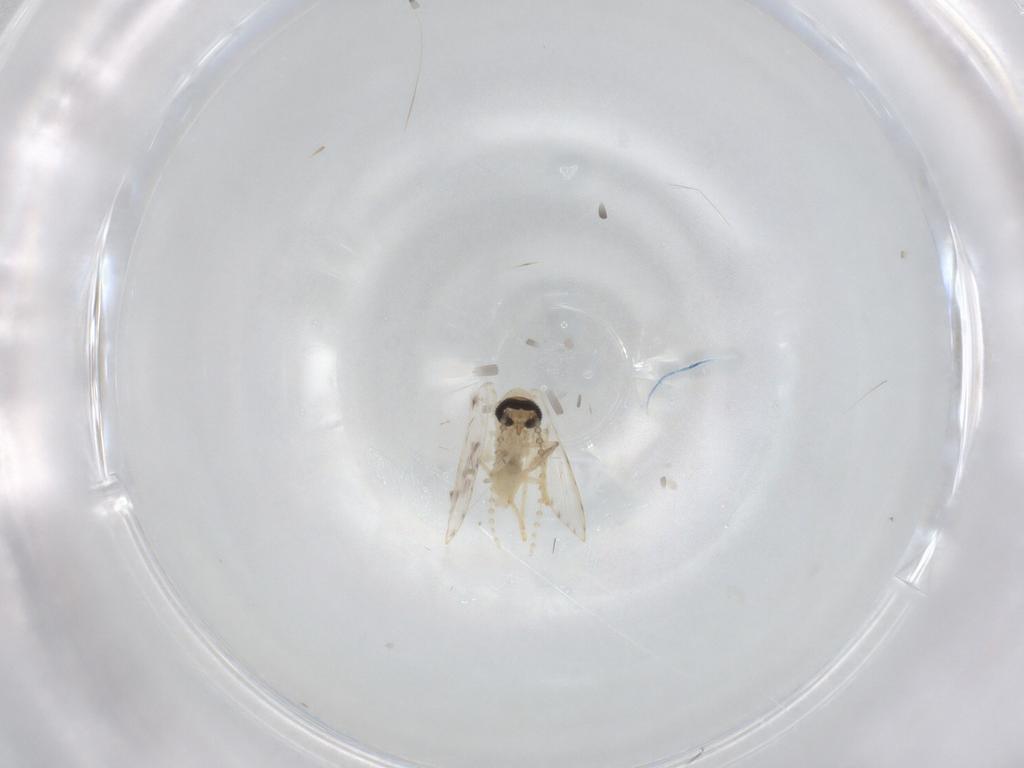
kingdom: Animalia
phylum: Arthropoda
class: Insecta
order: Diptera
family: Psychodidae
